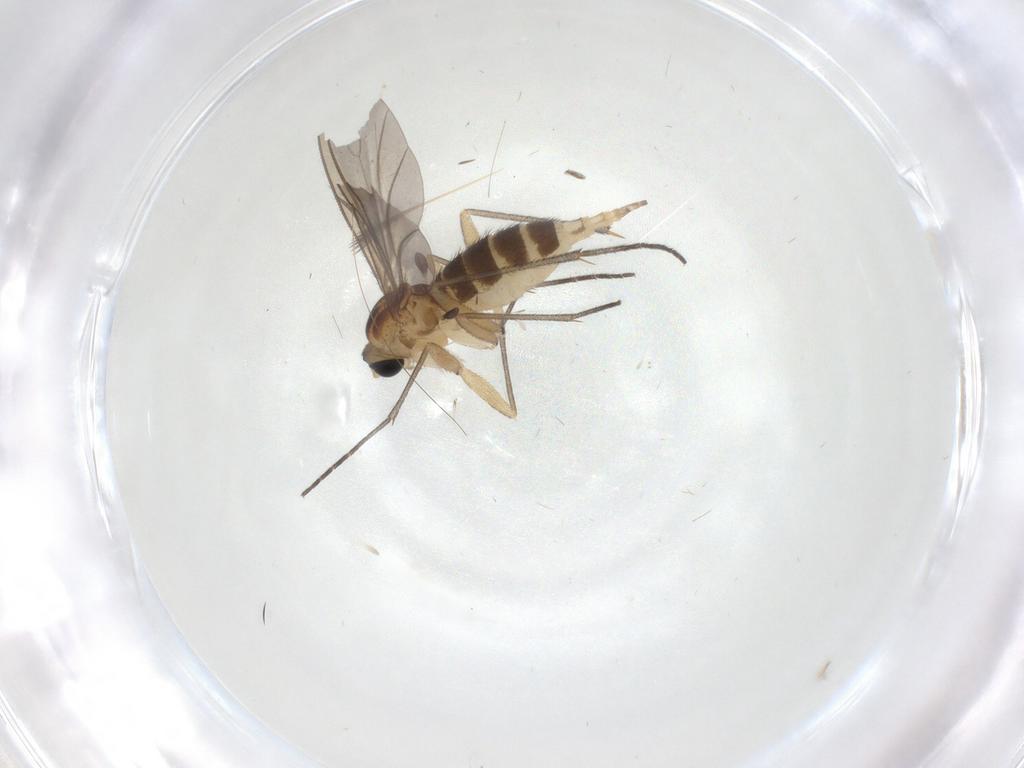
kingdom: Animalia
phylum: Arthropoda
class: Insecta
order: Diptera
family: Sciaridae
